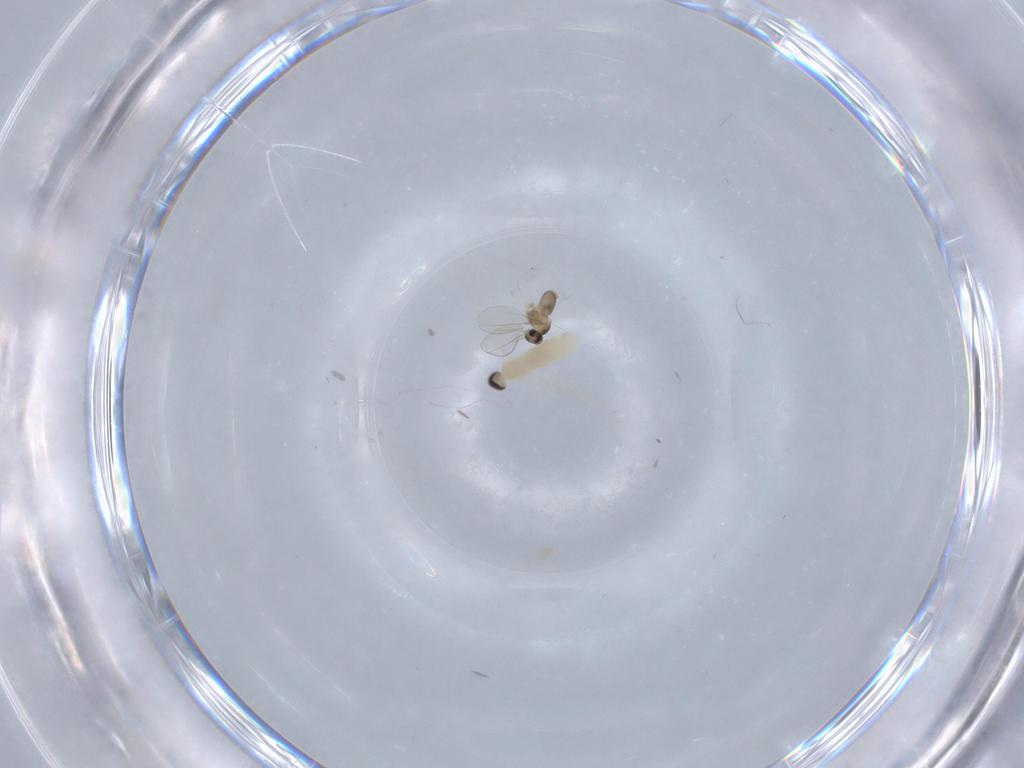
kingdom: Animalia
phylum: Arthropoda
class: Insecta
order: Diptera
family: Cecidomyiidae
